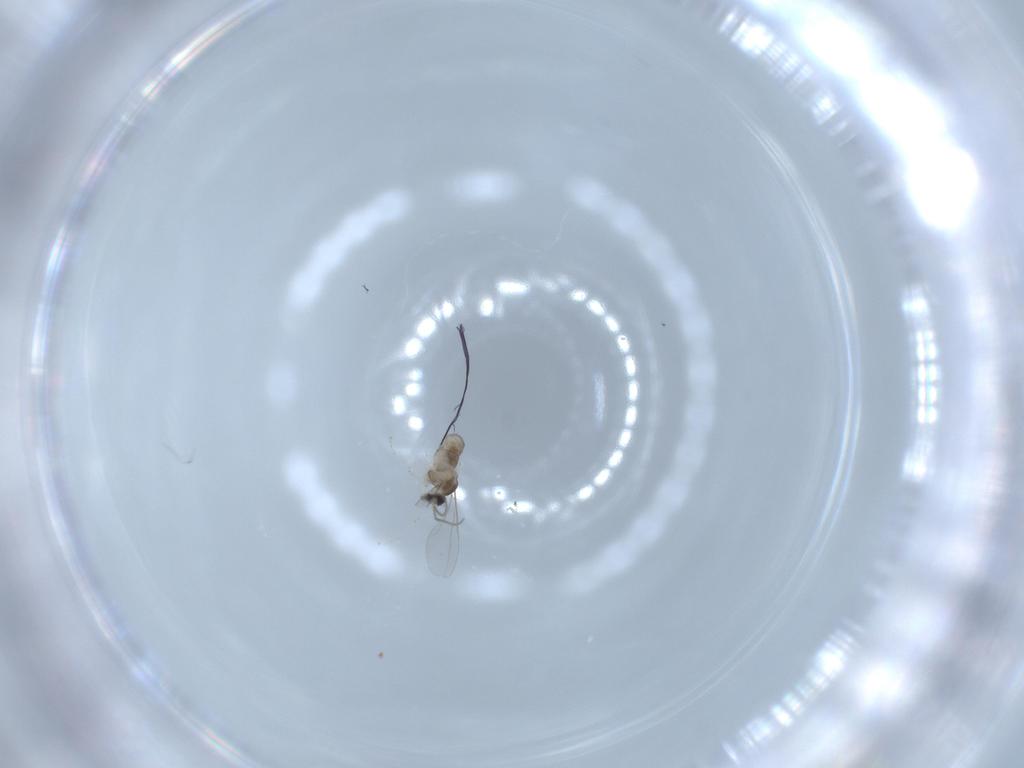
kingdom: Animalia
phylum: Arthropoda
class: Insecta
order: Diptera
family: Cecidomyiidae
